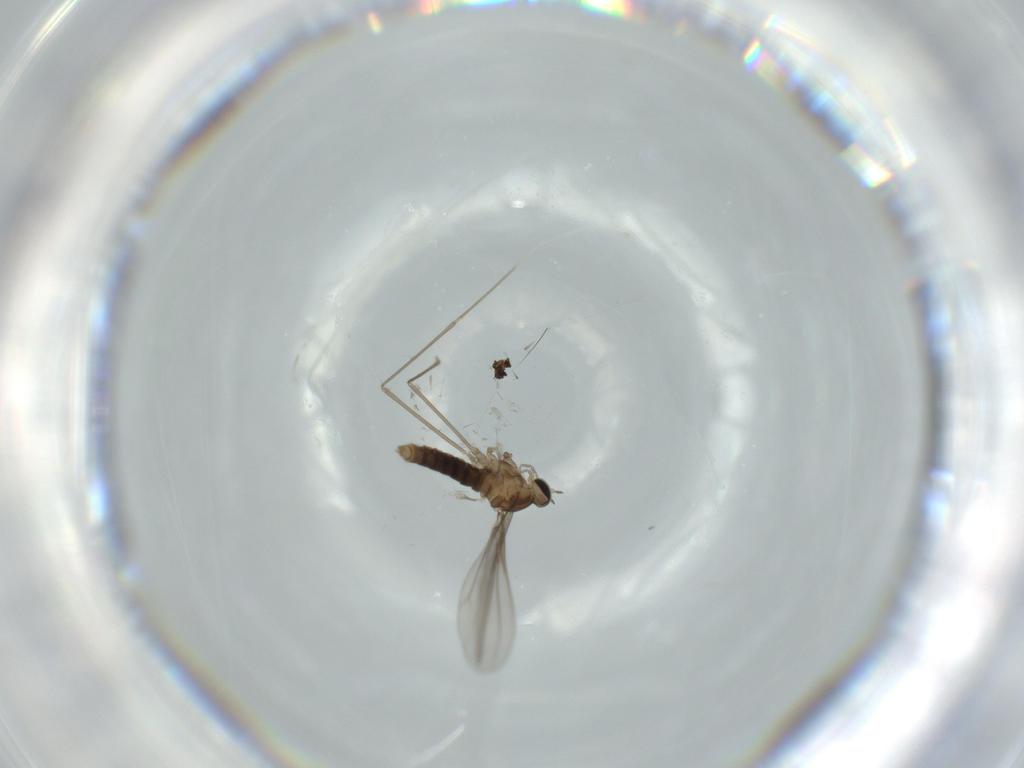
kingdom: Animalia
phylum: Arthropoda
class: Insecta
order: Diptera
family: Cecidomyiidae
